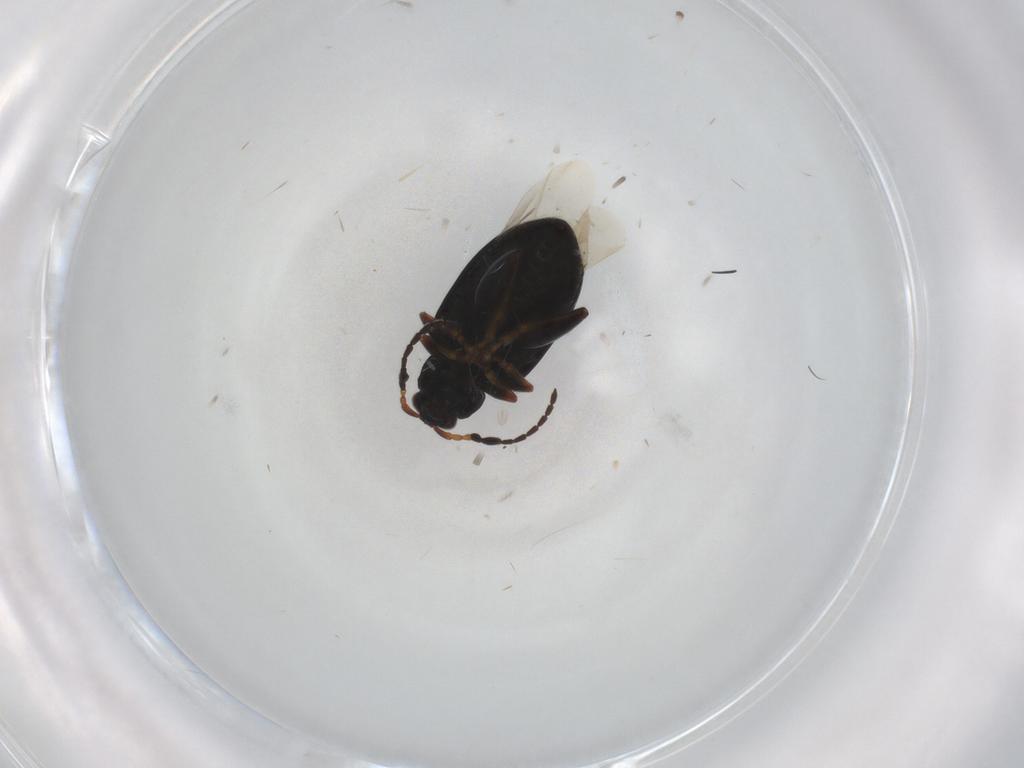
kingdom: Animalia
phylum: Arthropoda
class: Insecta
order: Coleoptera
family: Chrysomelidae
